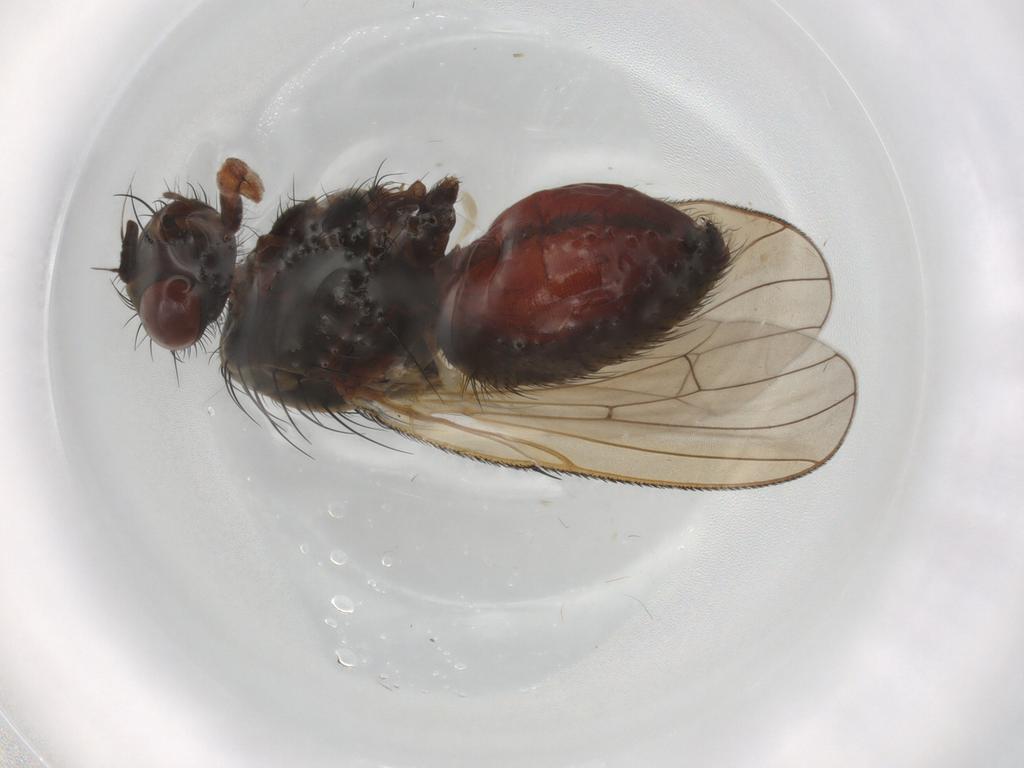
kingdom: Animalia
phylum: Arthropoda
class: Insecta
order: Diptera
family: Anthomyiidae
